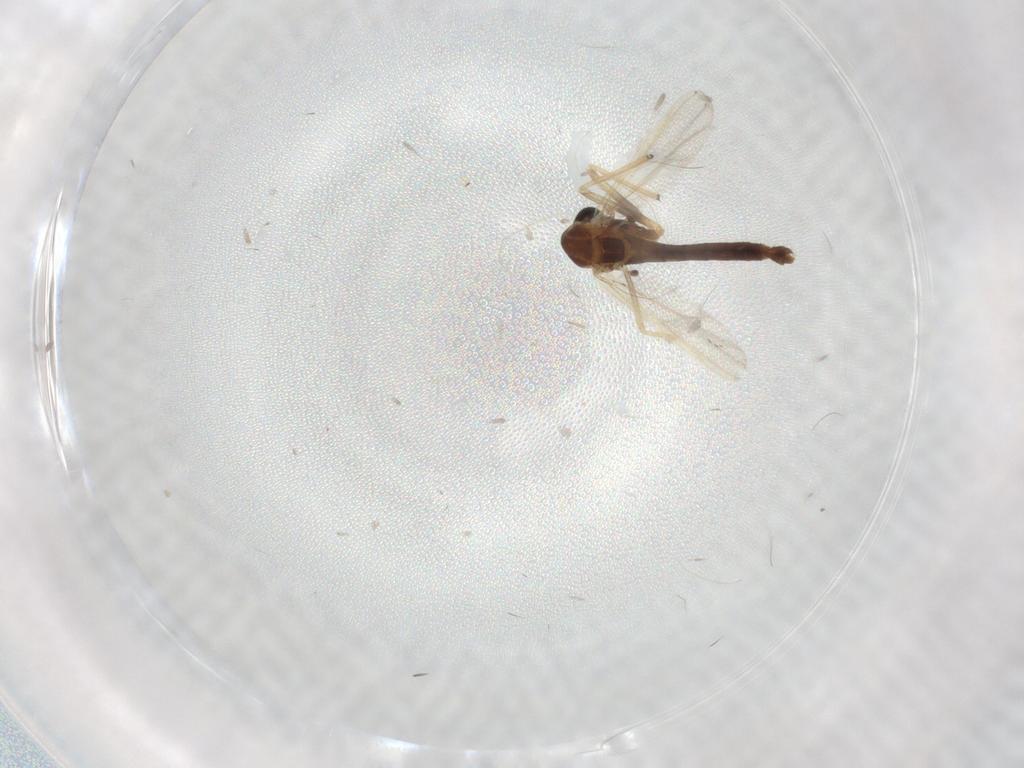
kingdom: Animalia
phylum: Arthropoda
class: Insecta
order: Diptera
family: Chironomidae
